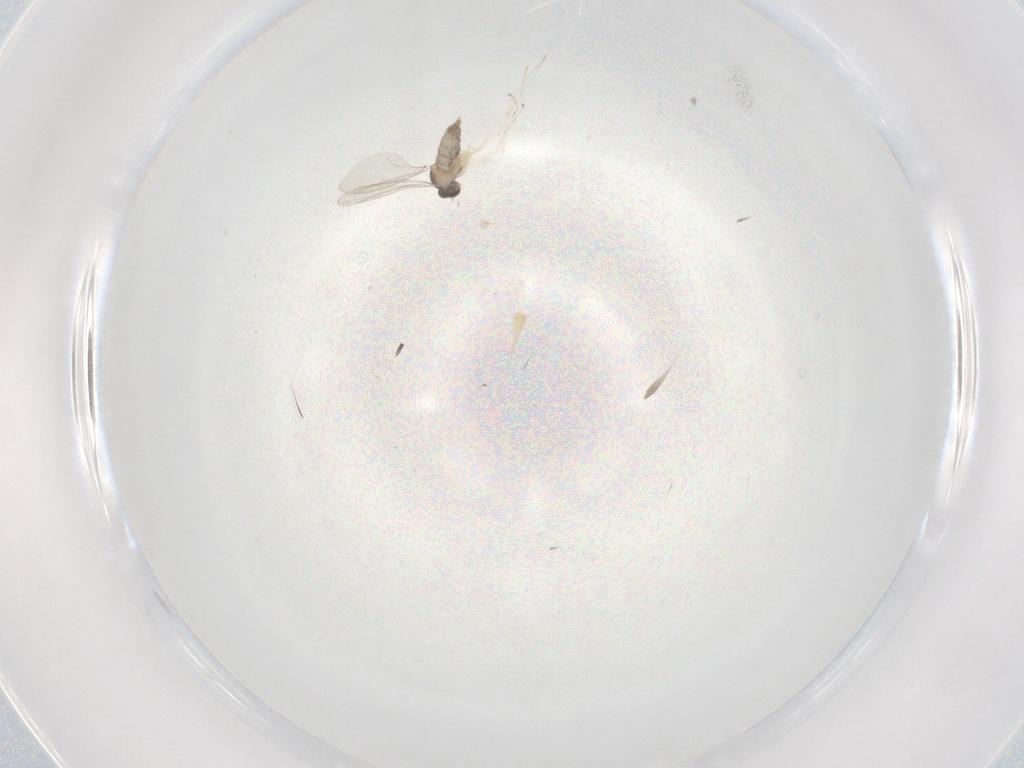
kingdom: Animalia
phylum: Arthropoda
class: Insecta
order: Diptera
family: Cecidomyiidae
